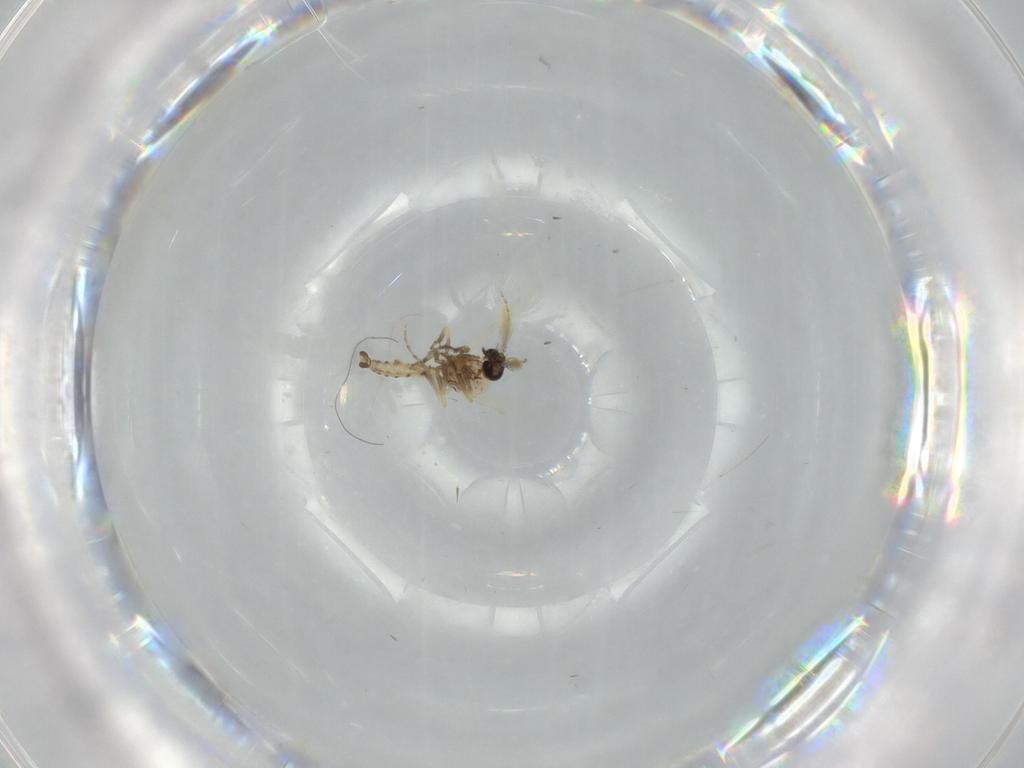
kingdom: Animalia
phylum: Arthropoda
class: Insecta
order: Diptera
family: Ceratopogonidae
